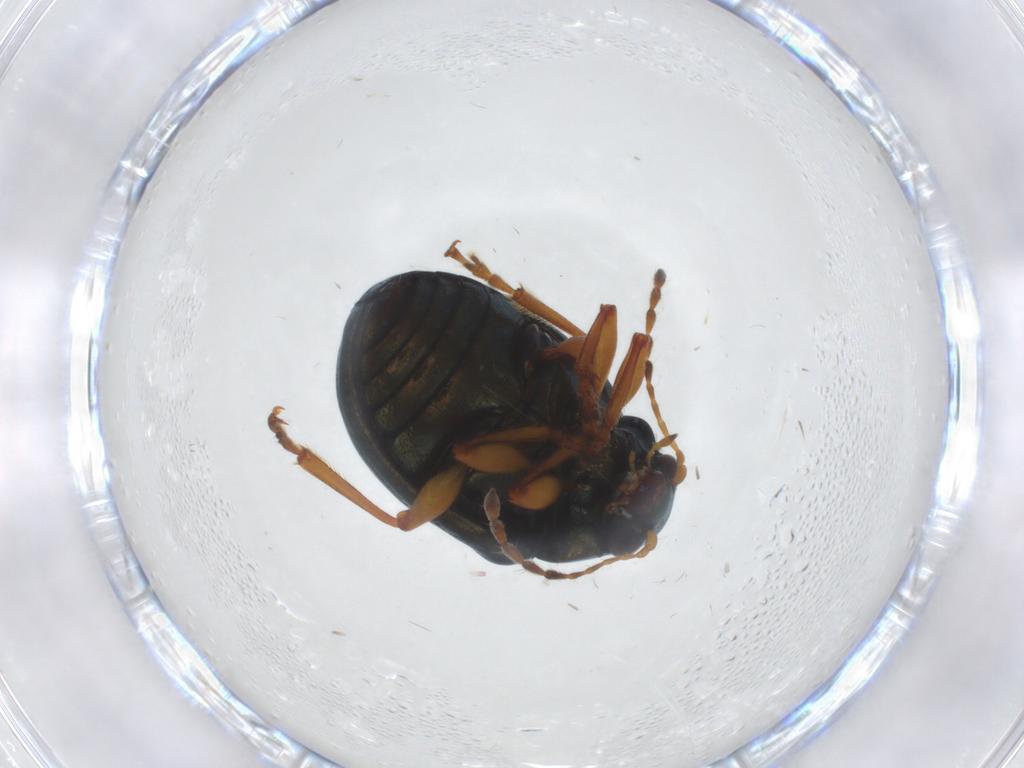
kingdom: Animalia
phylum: Arthropoda
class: Insecta
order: Coleoptera
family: Chrysomelidae
